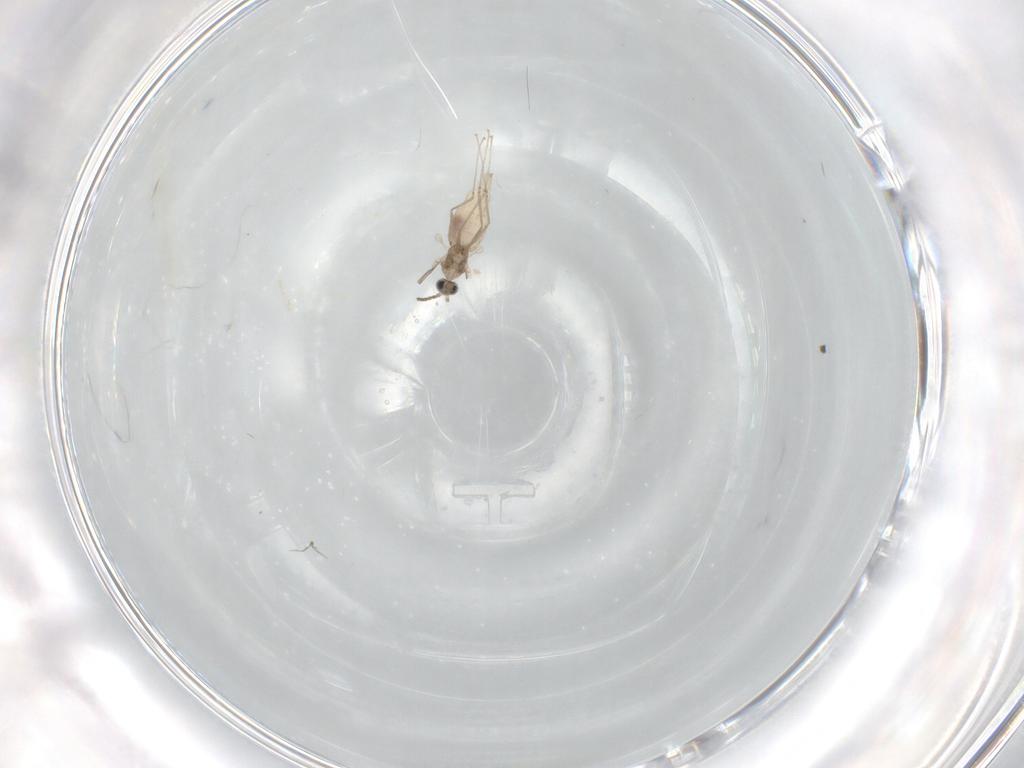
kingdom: Animalia
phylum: Arthropoda
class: Insecta
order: Diptera
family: Cecidomyiidae
